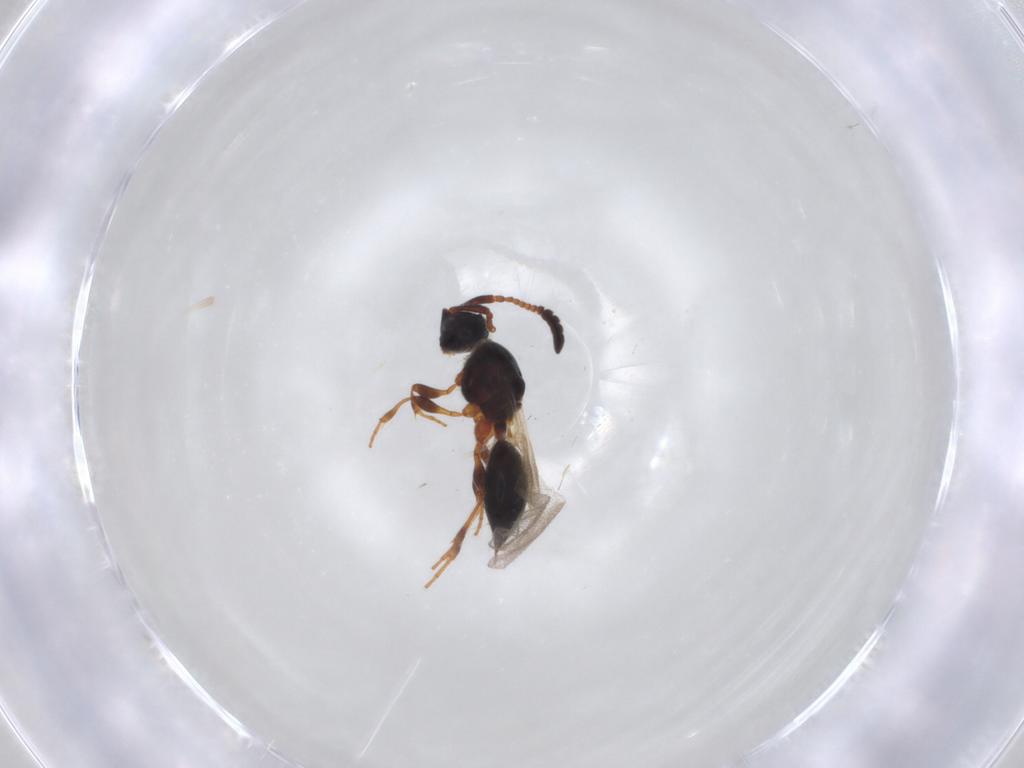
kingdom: Animalia
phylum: Arthropoda
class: Insecta
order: Hymenoptera
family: Diapriidae
